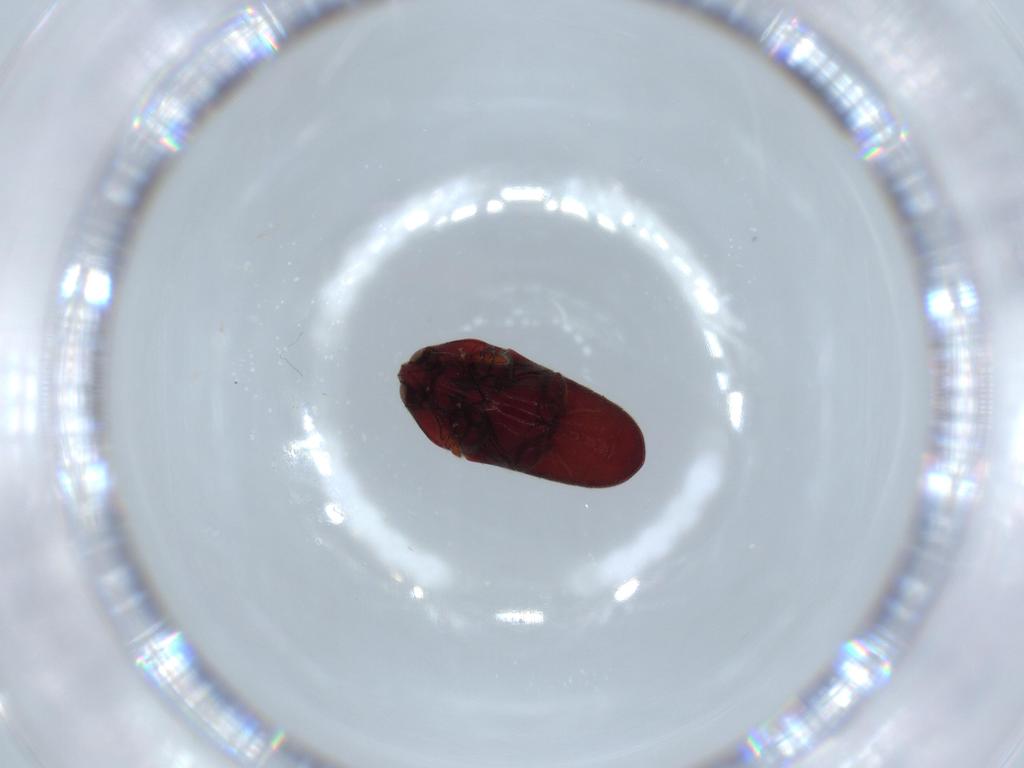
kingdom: Animalia
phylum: Arthropoda
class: Insecta
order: Coleoptera
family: Throscidae
